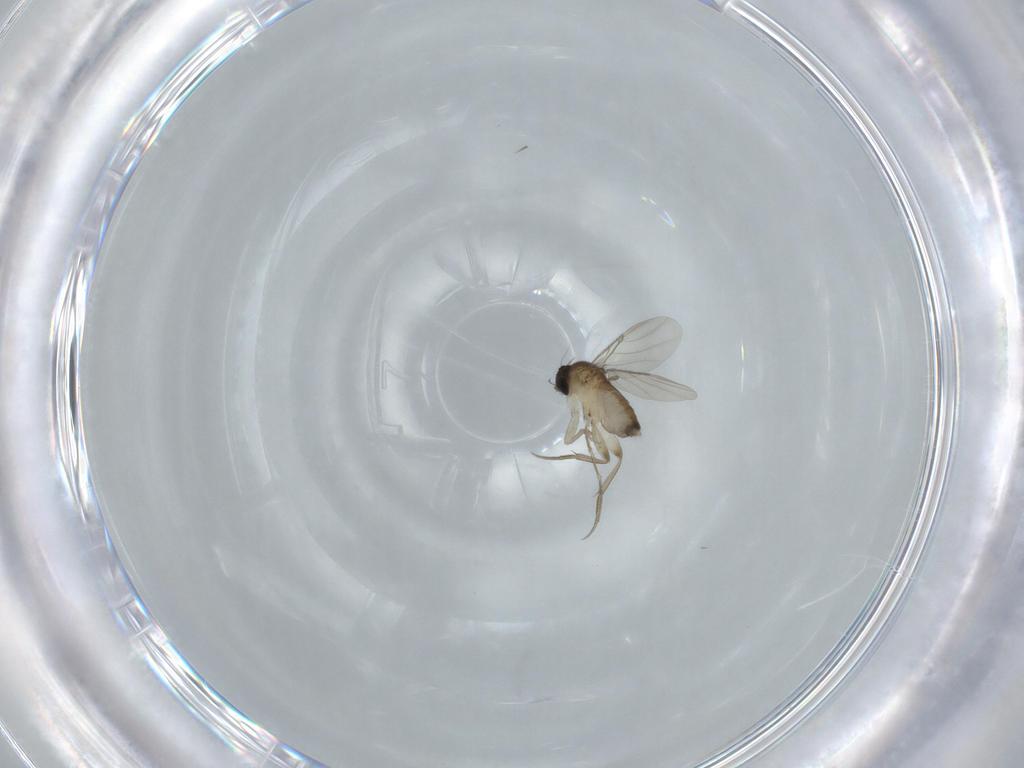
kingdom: Animalia
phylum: Arthropoda
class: Insecta
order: Diptera
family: Phoridae
